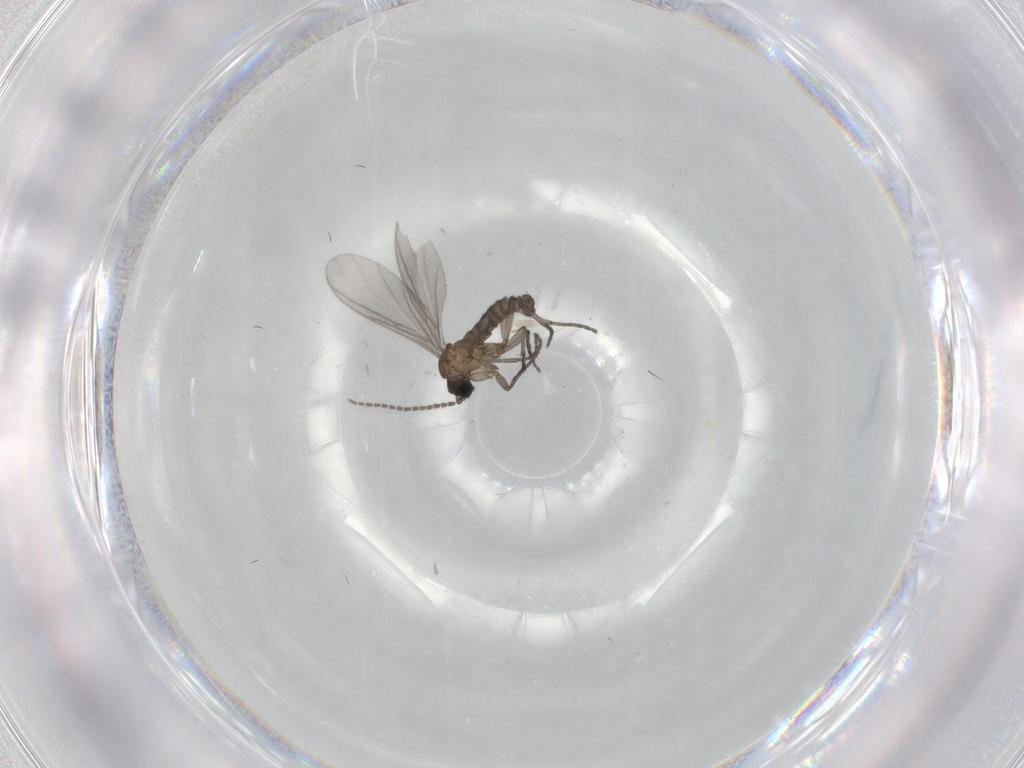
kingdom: Animalia
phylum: Arthropoda
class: Insecta
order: Diptera
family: Sciaridae
